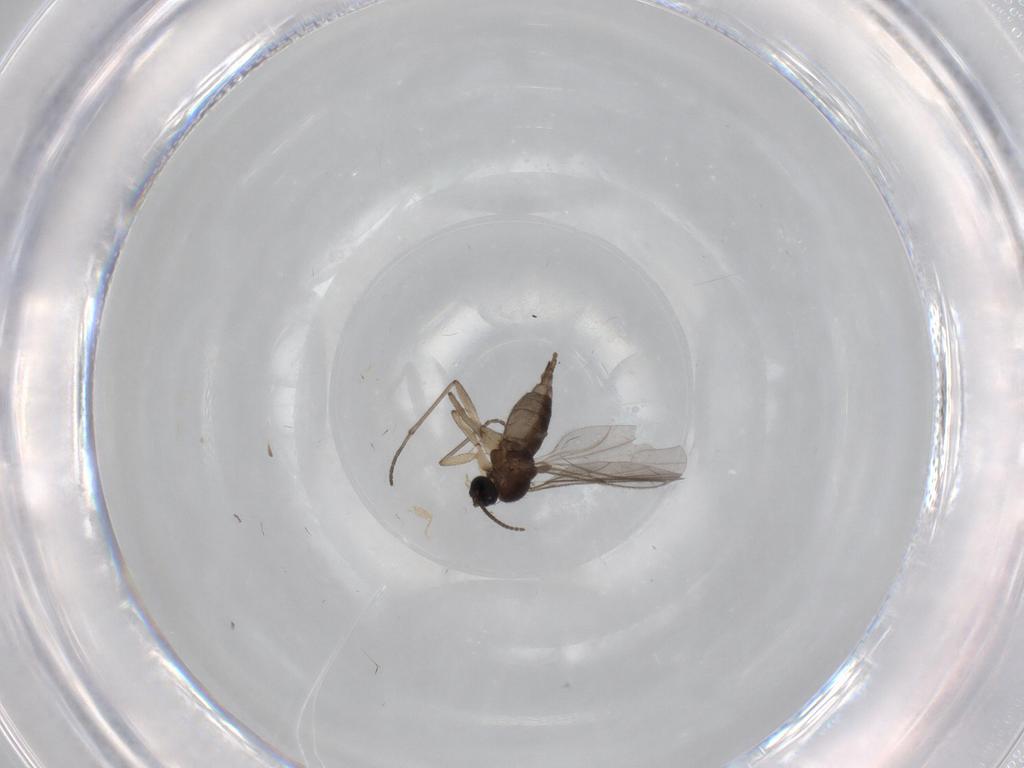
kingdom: Animalia
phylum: Arthropoda
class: Insecta
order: Diptera
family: Sciaridae
